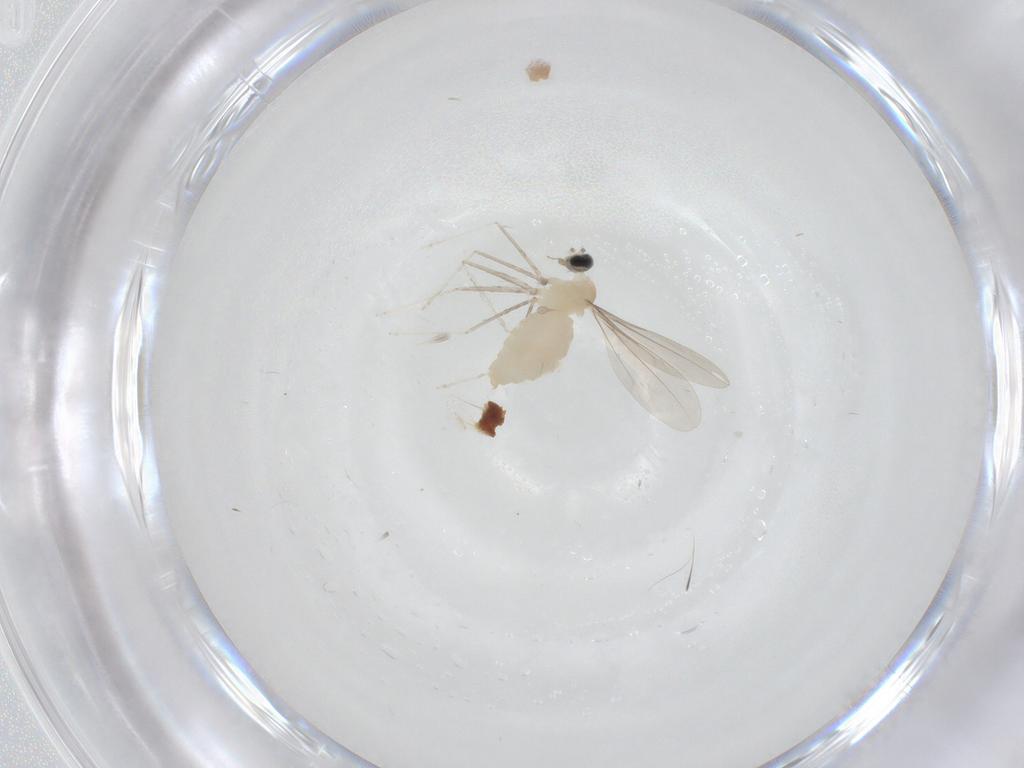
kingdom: Animalia
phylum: Arthropoda
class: Insecta
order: Diptera
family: Cecidomyiidae
